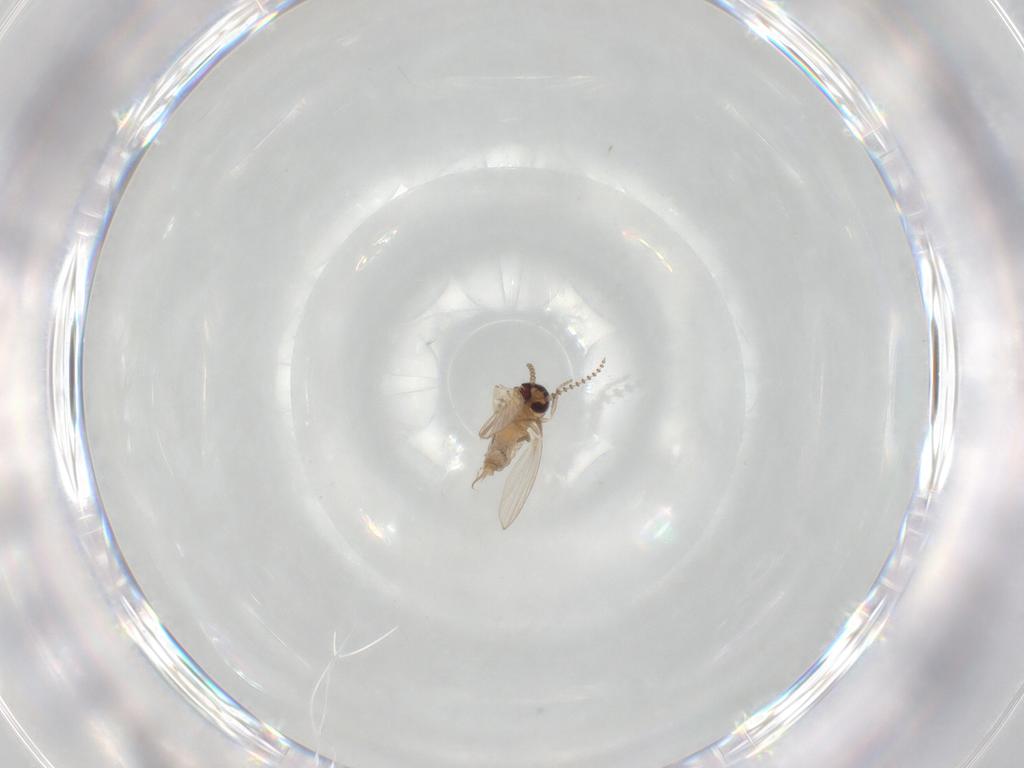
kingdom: Animalia
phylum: Arthropoda
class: Insecta
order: Diptera
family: Psychodidae
